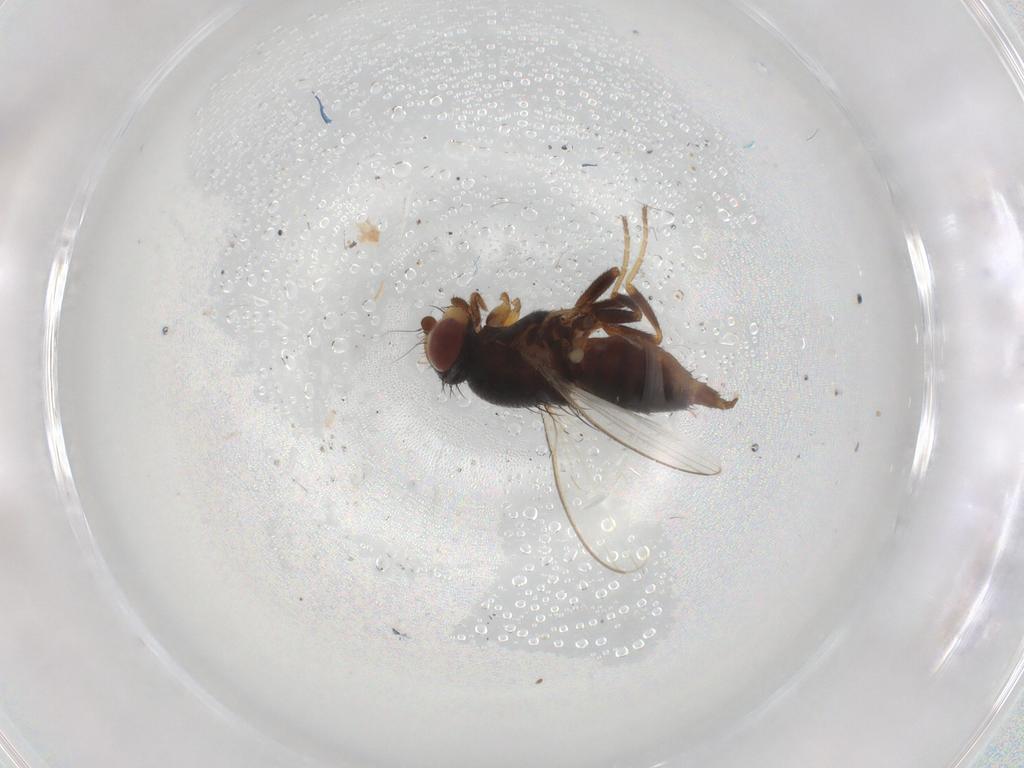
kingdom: Animalia
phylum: Arthropoda
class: Insecta
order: Diptera
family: Chloropidae
